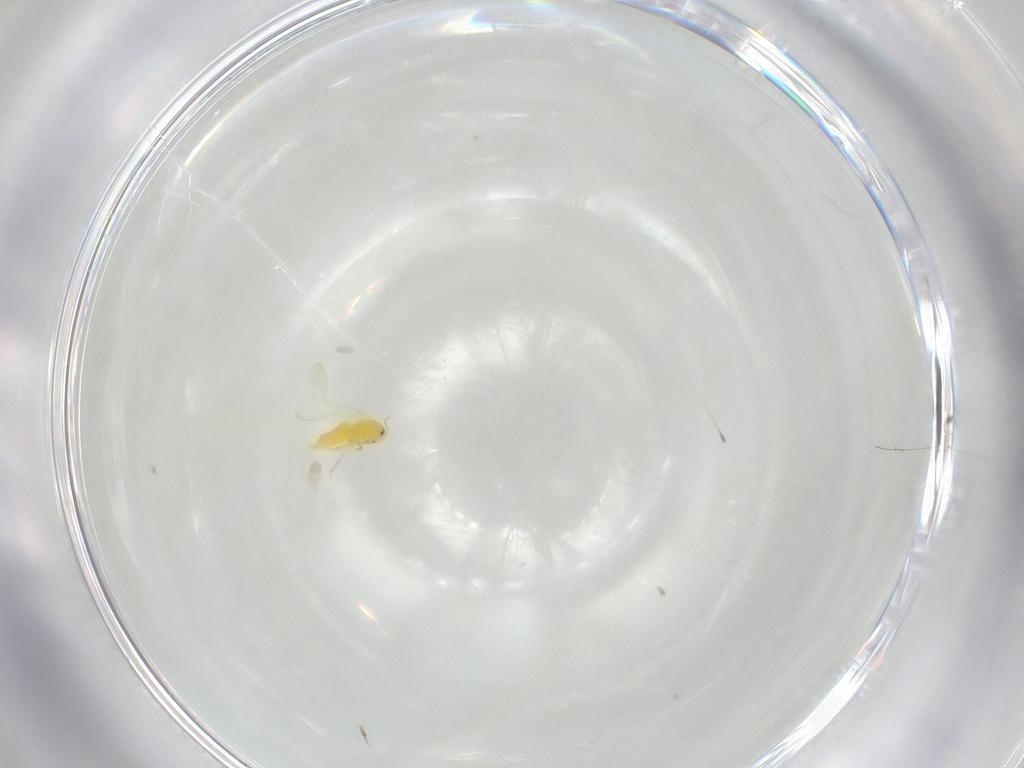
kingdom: Animalia
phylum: Arthropoda
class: Insecta
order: Hemiptera
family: Aleyrodidae
